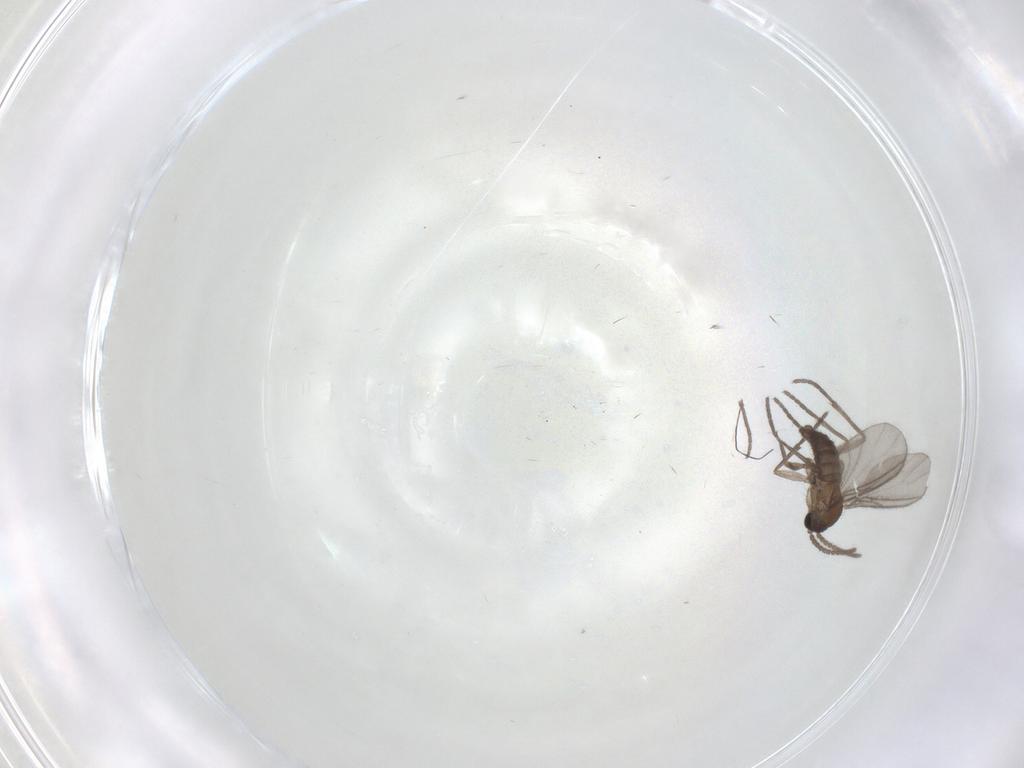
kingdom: Animalia
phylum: Arthropoda
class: Insecta
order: Diptera
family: Sciaridae
